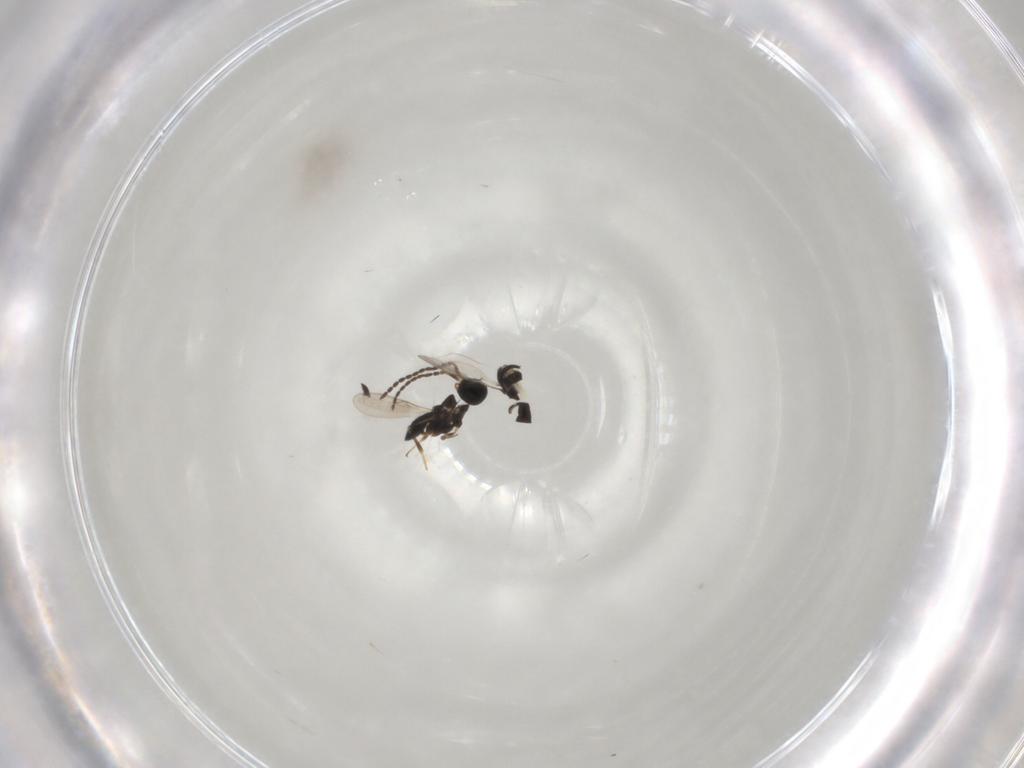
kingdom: Animalia
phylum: Arthropoda
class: Insecta
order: Hymenoptera
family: Scelionidae
